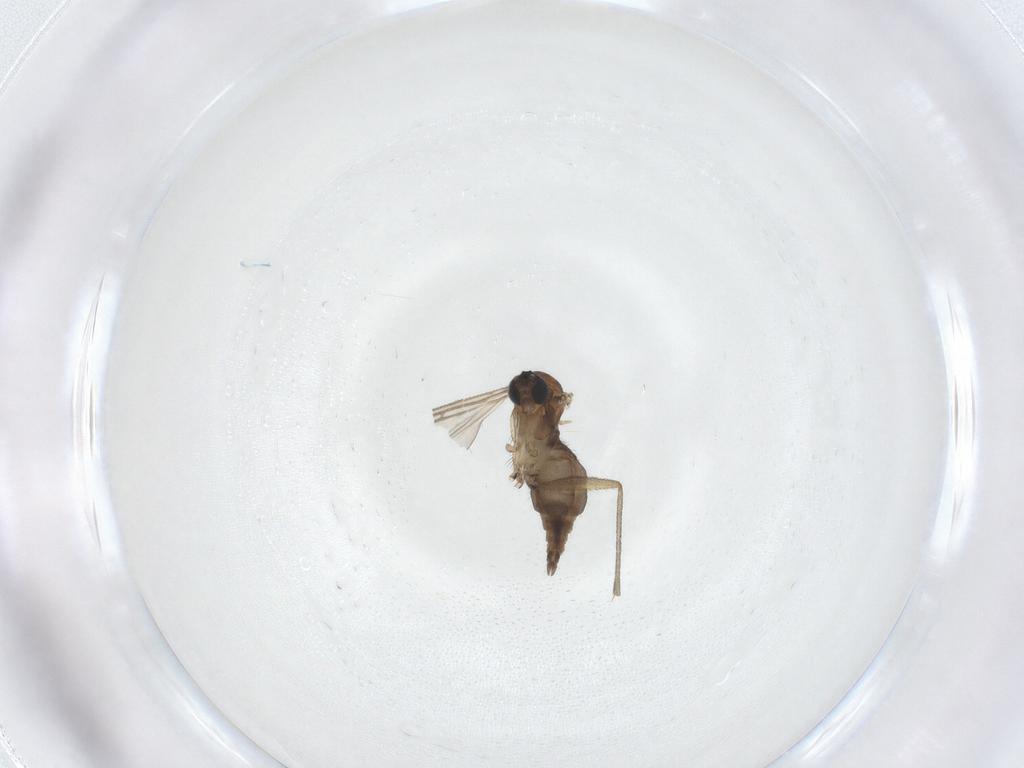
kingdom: Animalia
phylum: Arthropoda
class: Insecta
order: Diptera
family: Sciaridae
